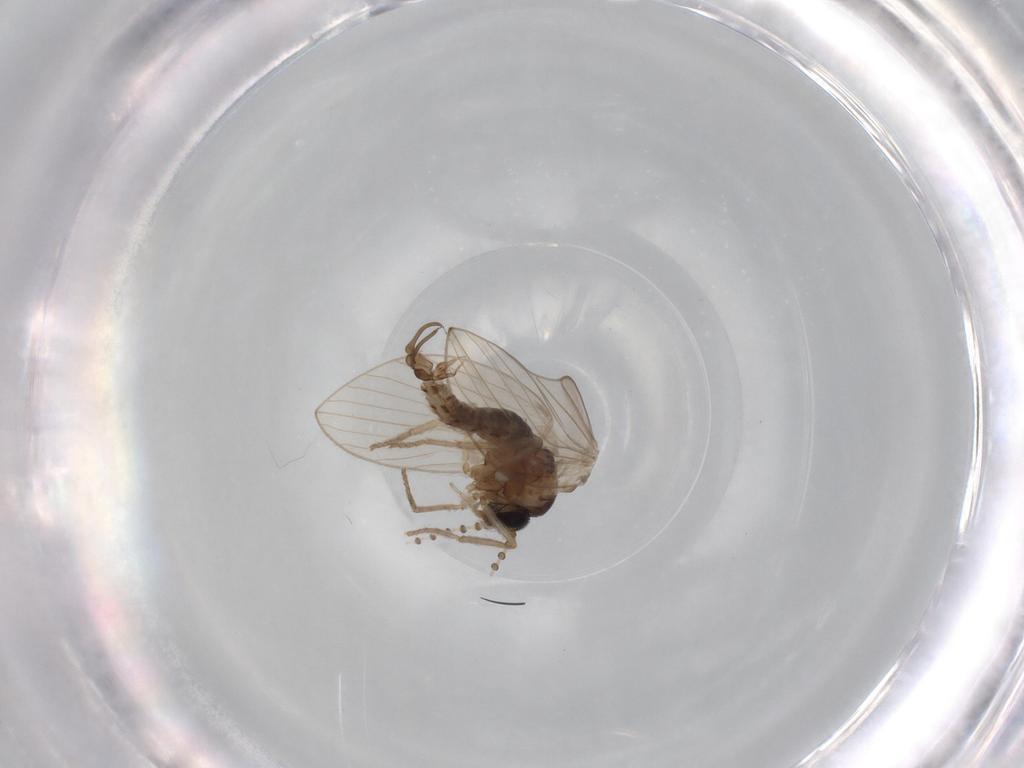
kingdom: Animalia
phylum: Arthropoda
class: Insecta
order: Diptera
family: Psychodidae
